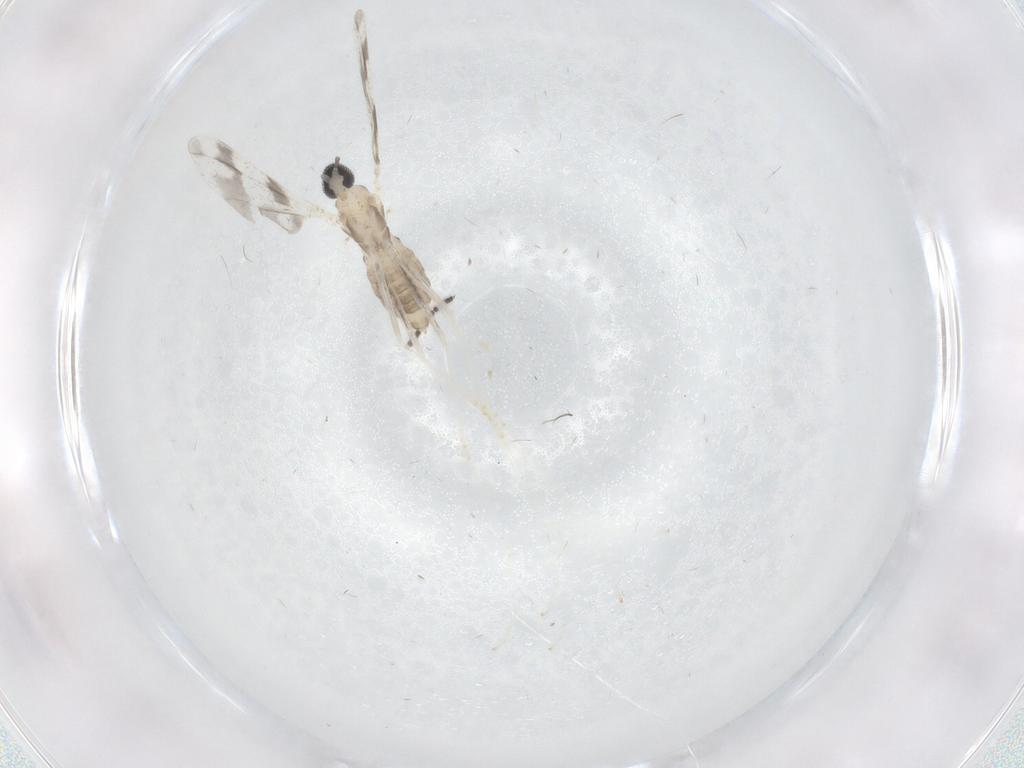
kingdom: Animalia
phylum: Arthropoda
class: Insecta
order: Diptera
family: Cecidomyiidae
